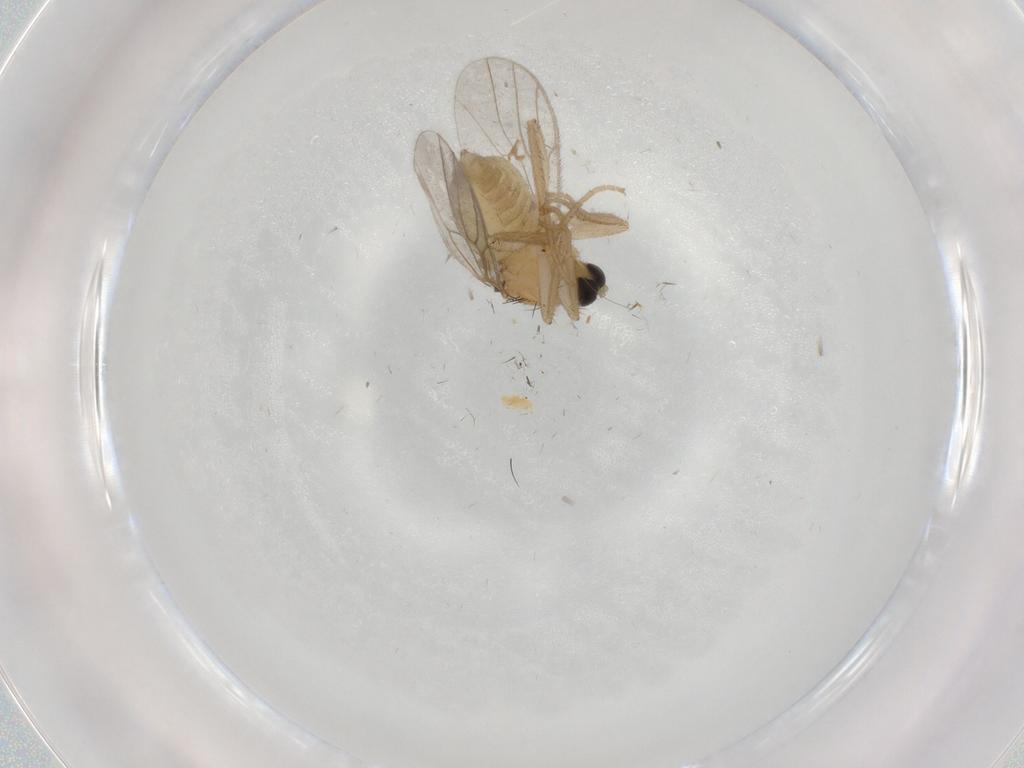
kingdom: Animalia
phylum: Arthropoda
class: Insecta
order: Diptera
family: Hybotidae
